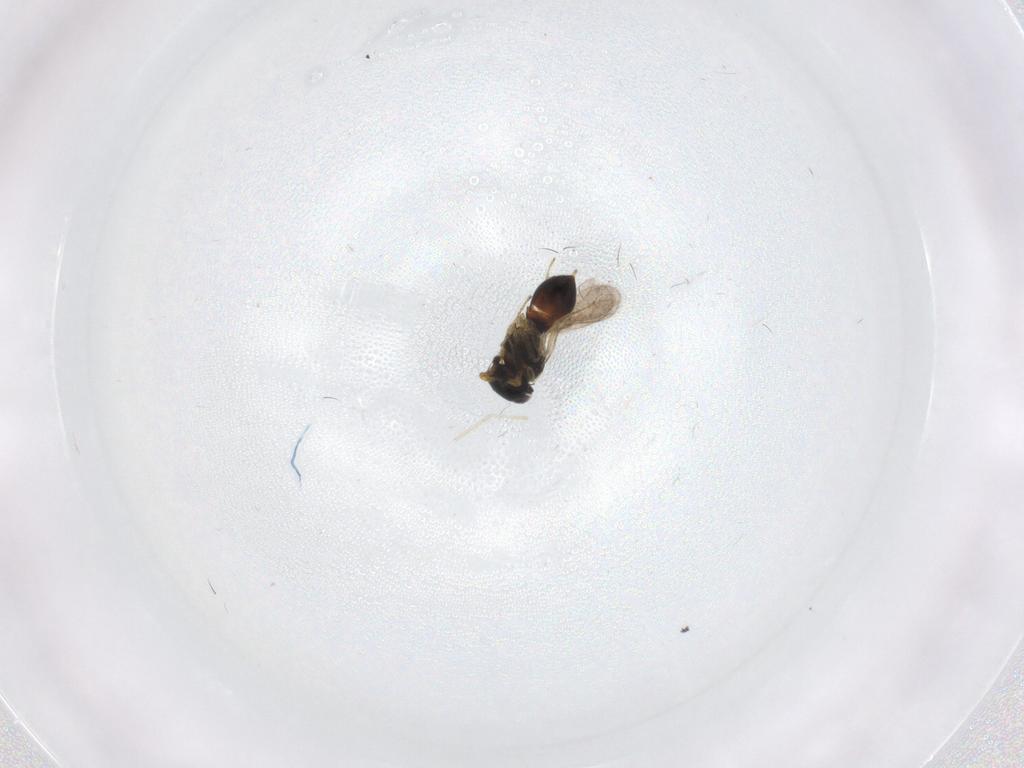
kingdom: Animalia
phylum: Arthropoda
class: Insecta
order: Hymenoptera
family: Scelionidae
